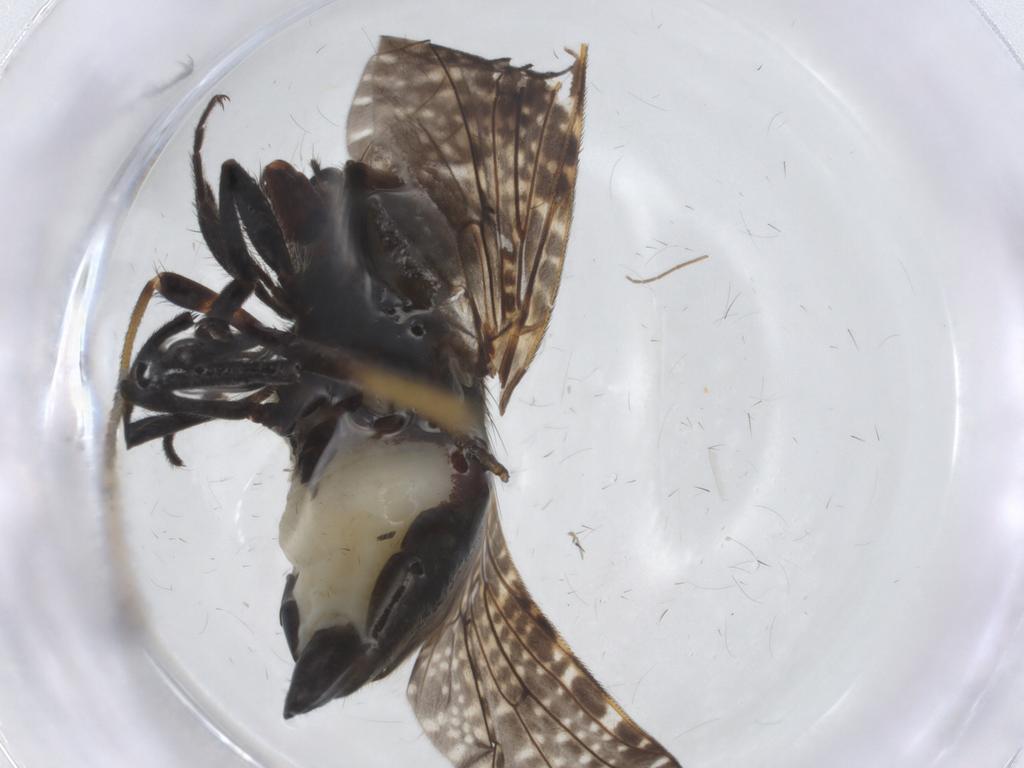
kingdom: Animalia
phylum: Arthropoda
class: Insecta
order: Diptera
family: Platystomatidae
